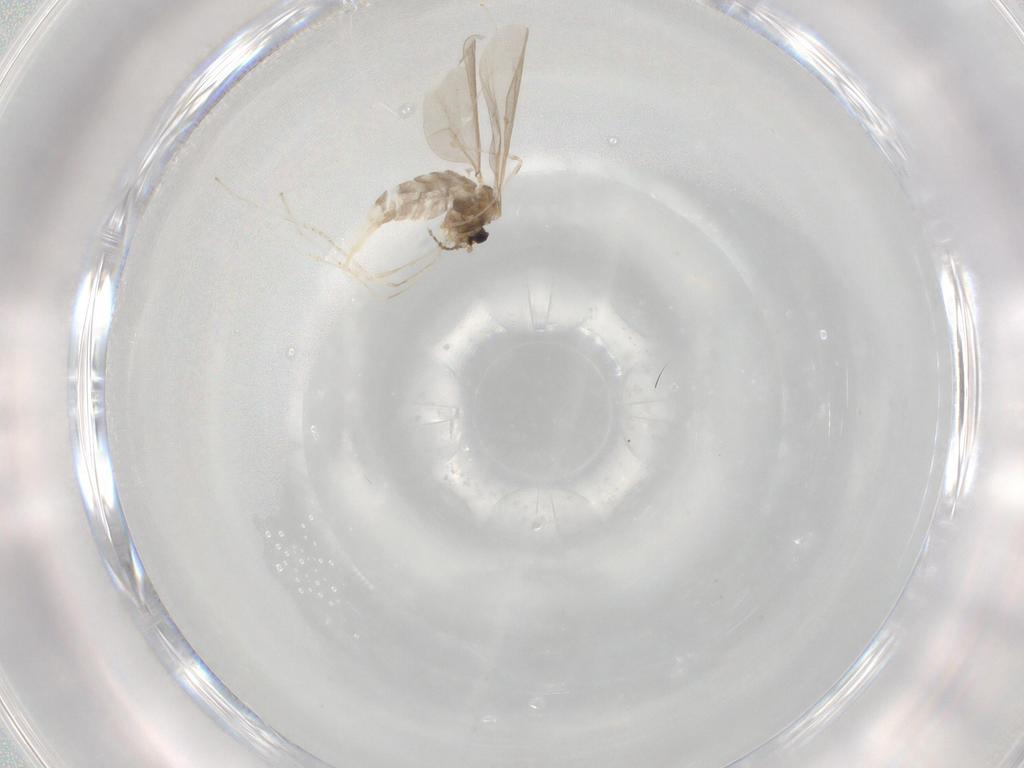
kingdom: Animalia
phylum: Arthropoda
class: Insecta
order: Diptera
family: Cecidomyiidae
